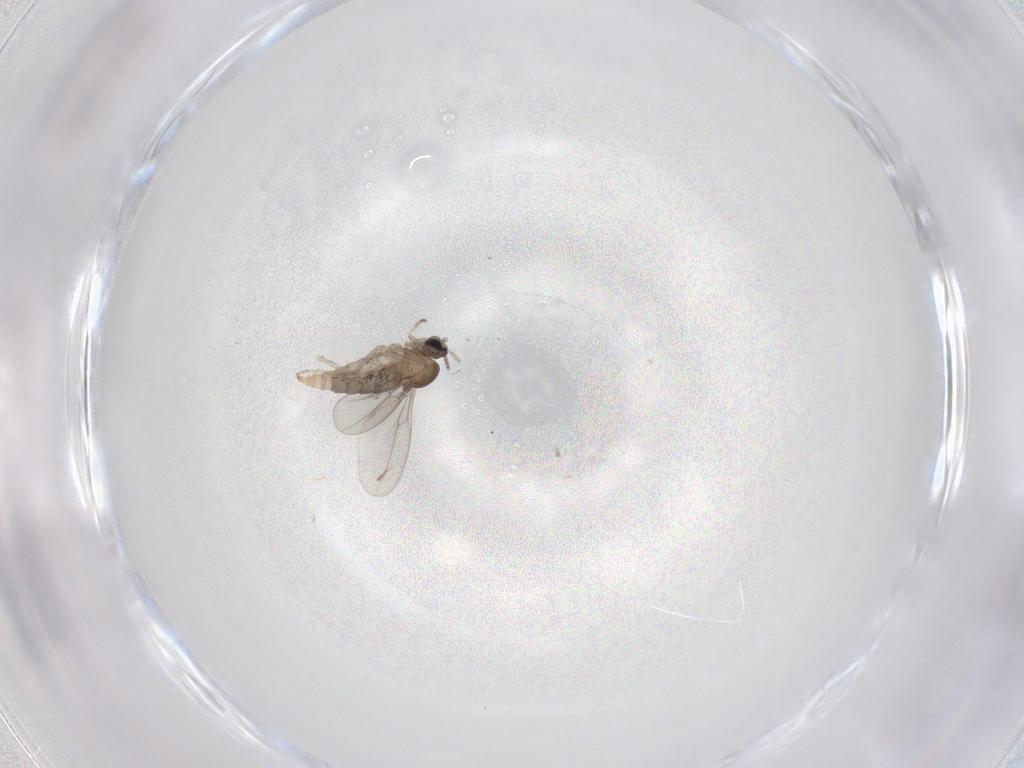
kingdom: Animalia
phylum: Arthropoda
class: Insecta
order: Diptera
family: Cecidomyiidae
